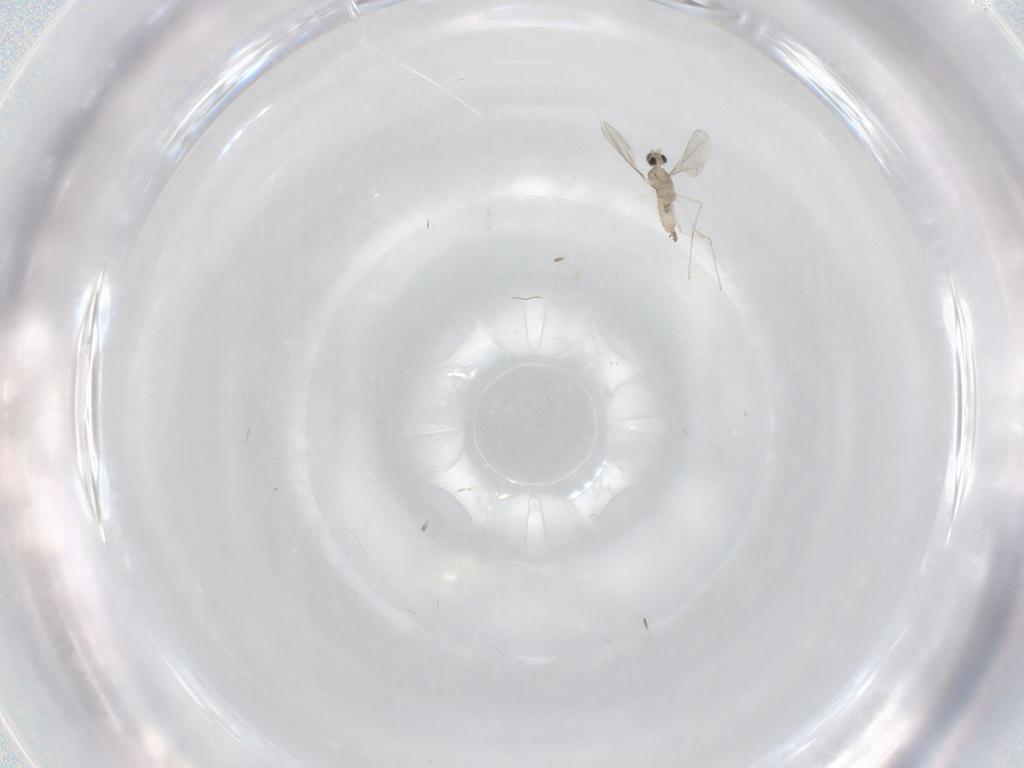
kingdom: Animalia
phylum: Arthropoda
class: Insecta
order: Diptera
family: Cecidomyiidae
